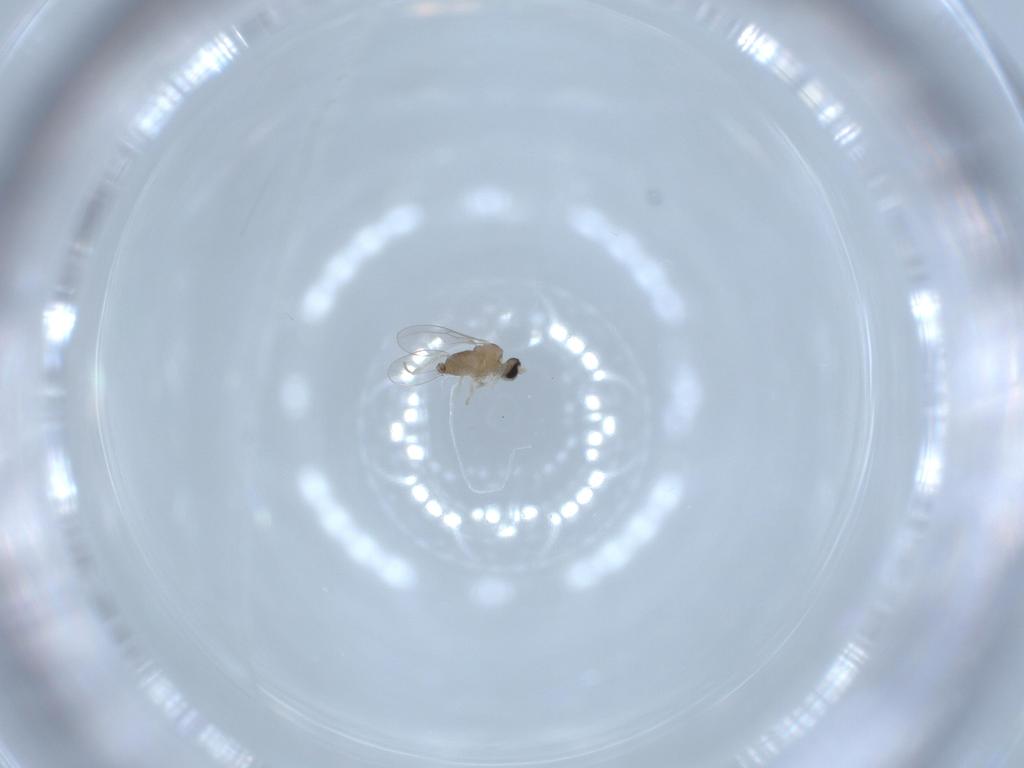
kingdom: Animalia
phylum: Arthropoda
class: Insecta
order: Diptera
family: Cecidomyiidae
